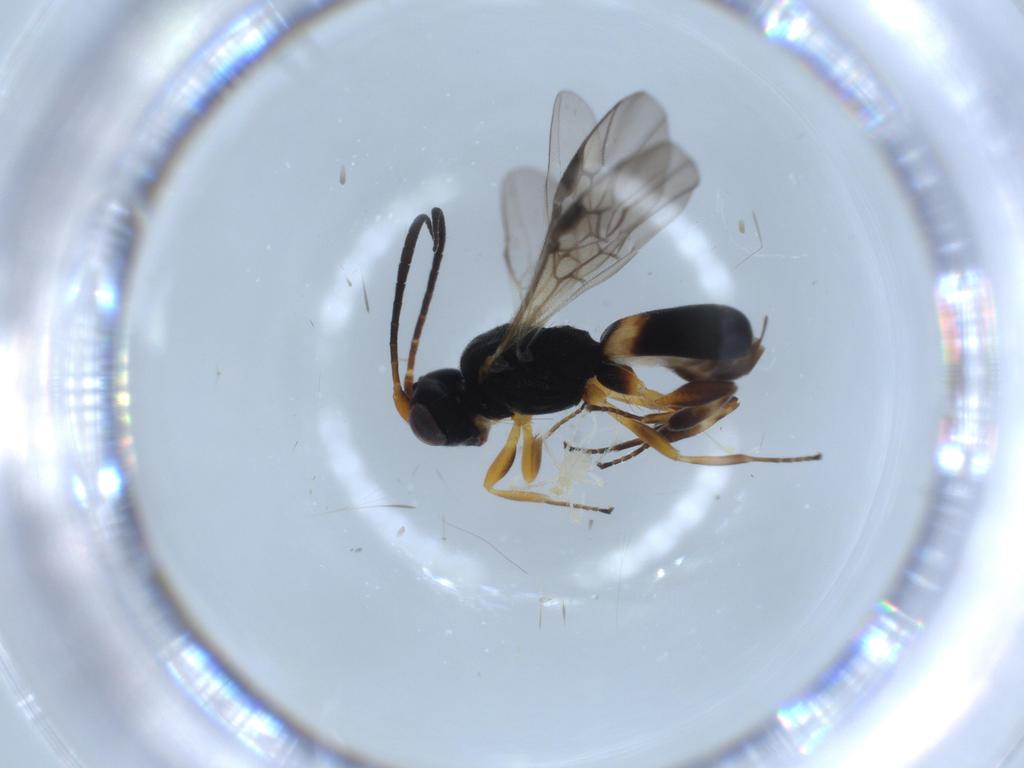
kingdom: Animalia
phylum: Arthropoda
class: Insecta
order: Hymenoptera
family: Braconidae
